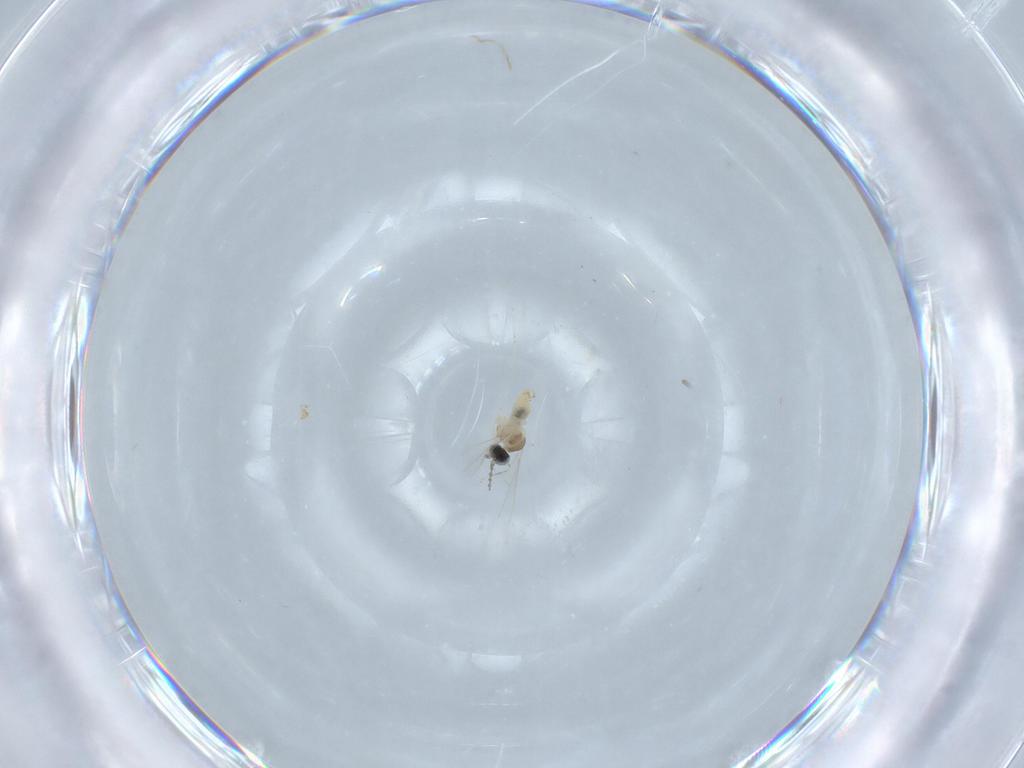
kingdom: Animalia
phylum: Arthropoda
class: Insecta
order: Diptera
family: Cecidomyiidae
